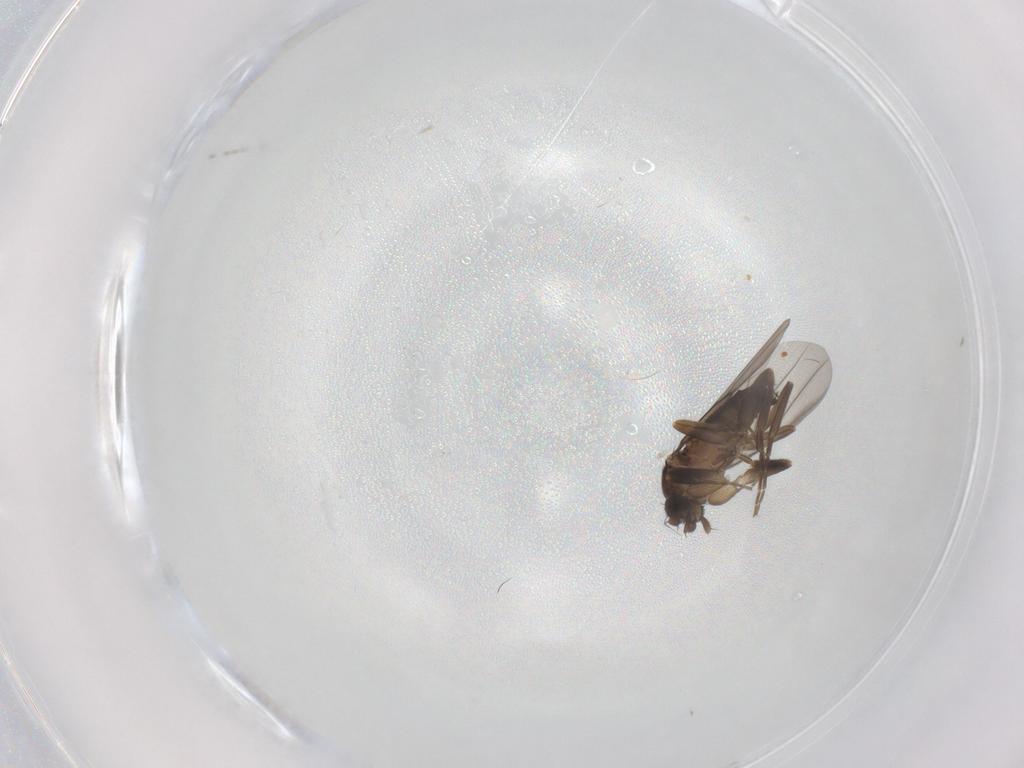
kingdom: Animalia
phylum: Arthropoda
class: Insecta
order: Diptera
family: Phoridae
